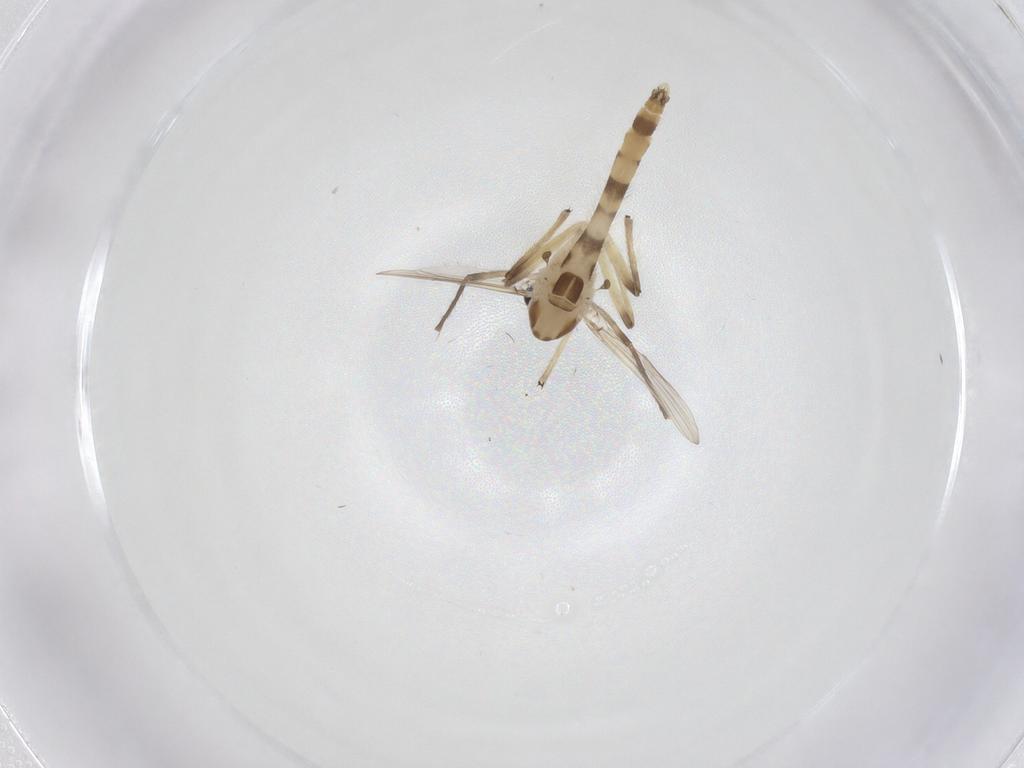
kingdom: Animalia
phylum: Arthropoda
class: Insecta
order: Diptera
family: Chironomidae
